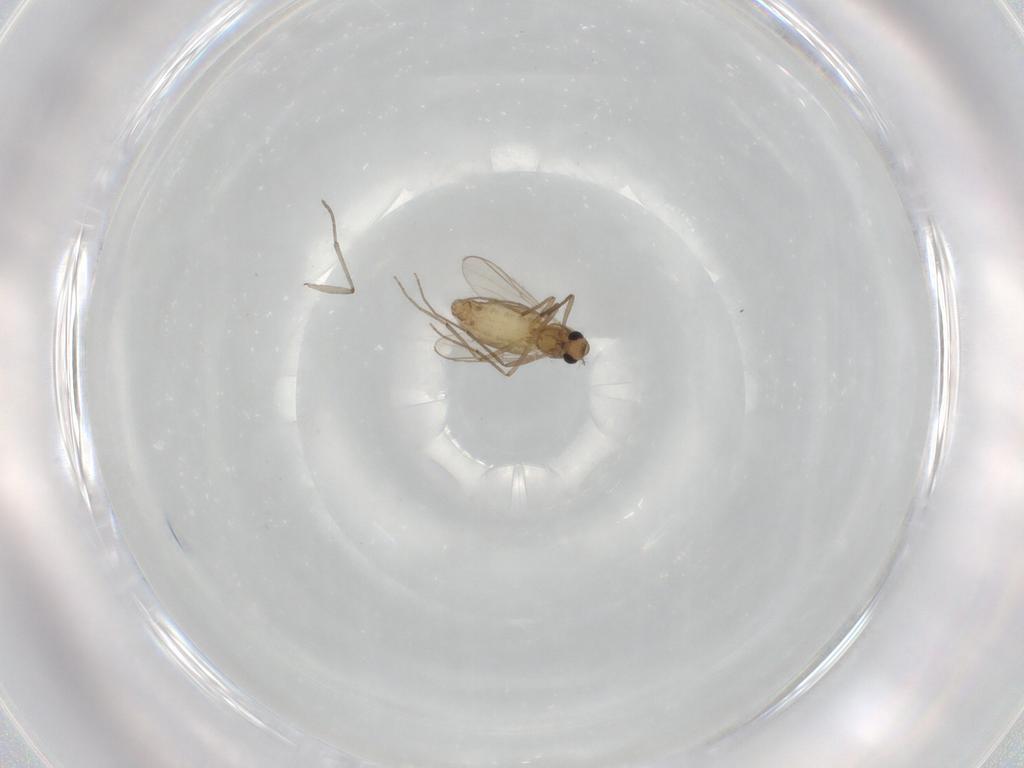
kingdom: Animalia
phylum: Arthropoda
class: Insecta
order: Diptera
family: Chironomidae
